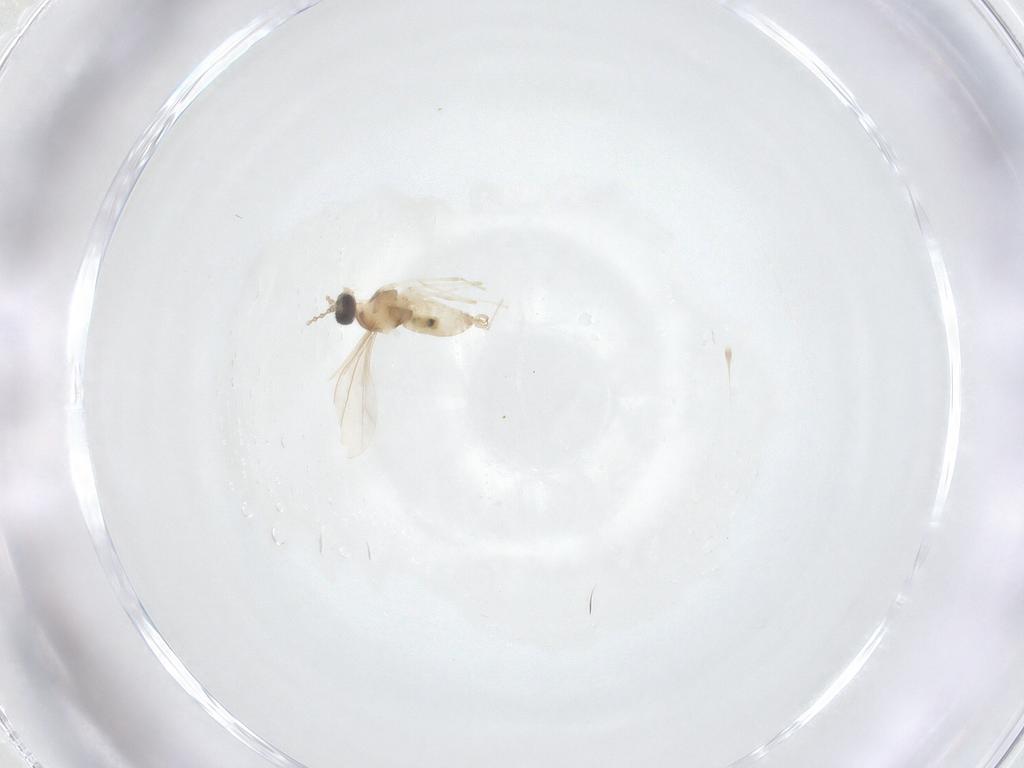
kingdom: Animalia
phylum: Arthropoda
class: Insecta
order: Diptera
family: Cecidomyiidae
